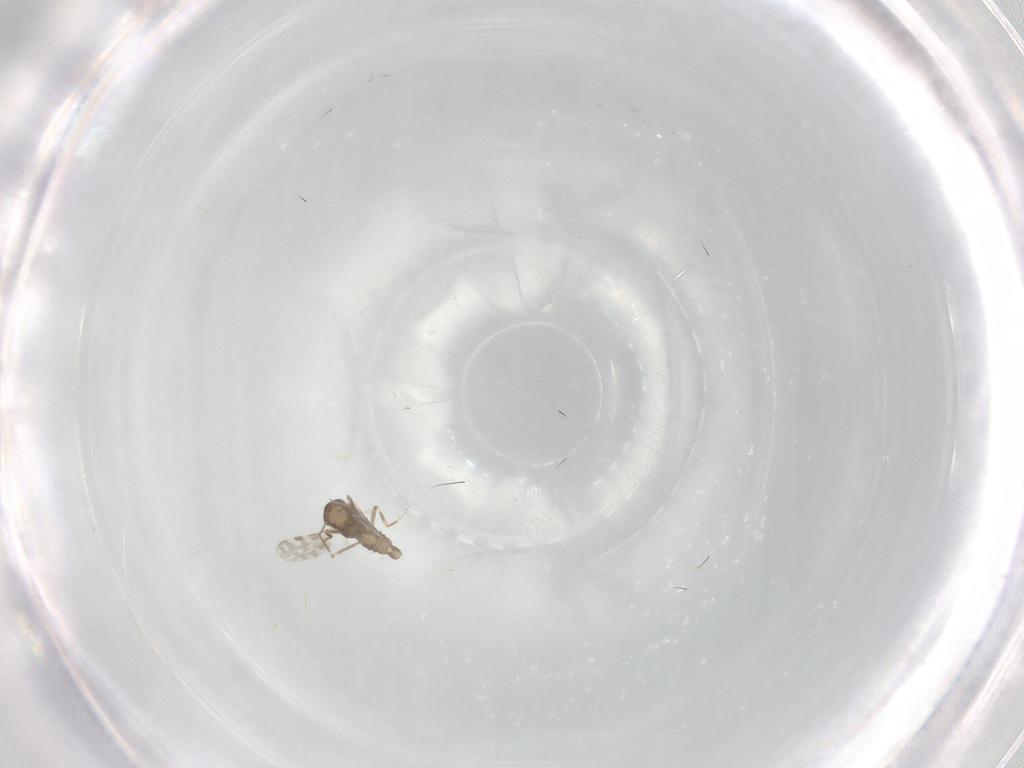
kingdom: Animalia
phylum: Arthropoda
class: Insecta
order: Diptera
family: Ceratopogonidae
